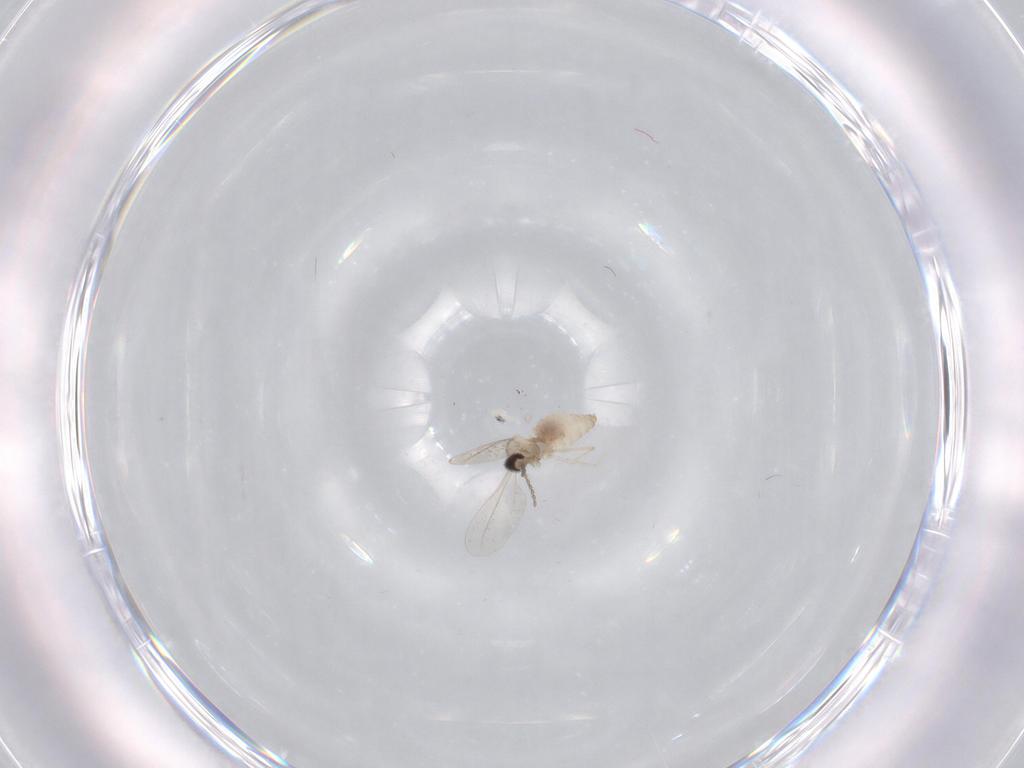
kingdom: Animalia
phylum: Arthropoda
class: Insecta
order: Diptera
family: Cecidomyiidae
